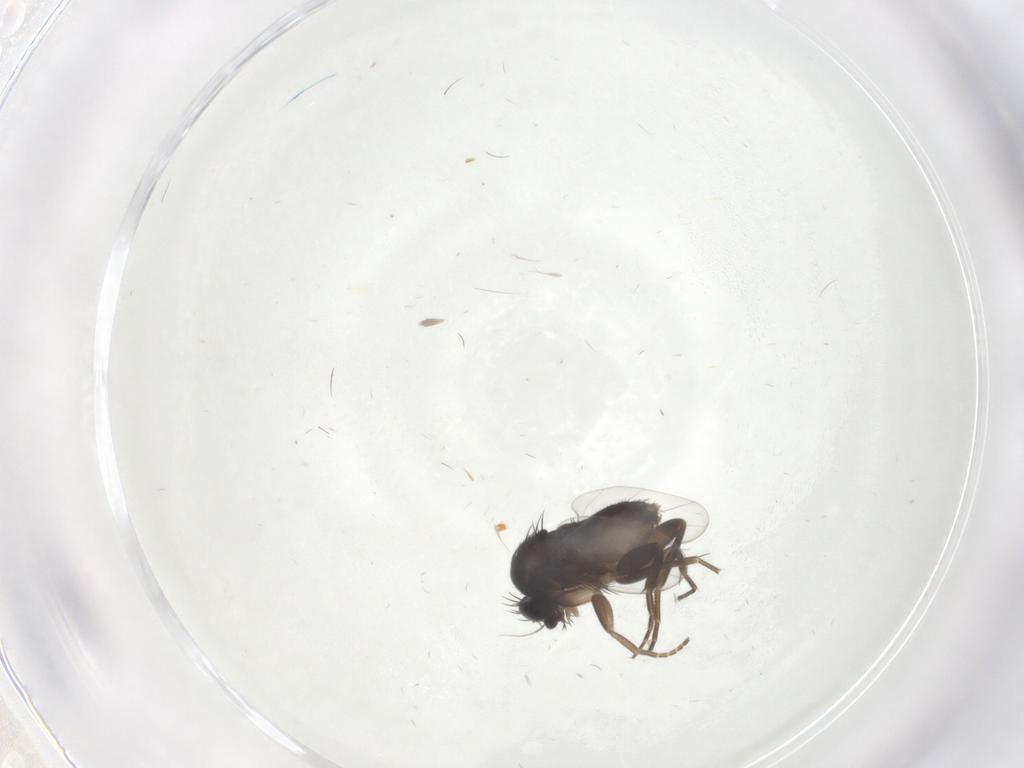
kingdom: Animalia
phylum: Arthropoda
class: Insecta
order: Diptera
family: Phoridae
